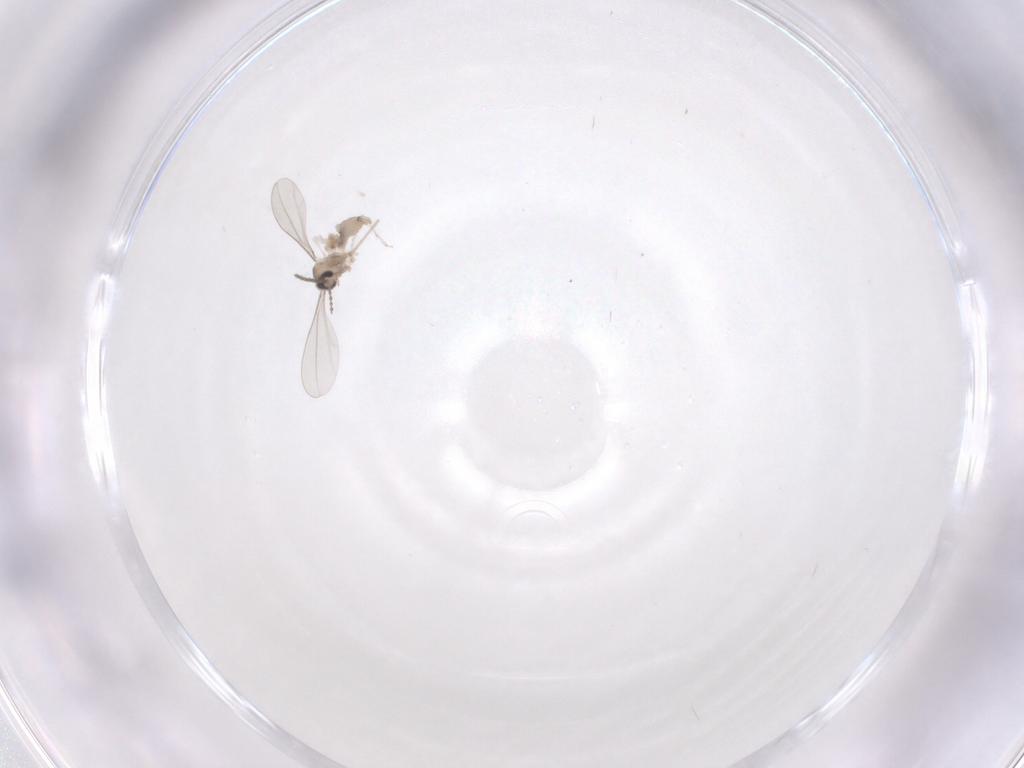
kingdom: Animalia
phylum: Arthropoda
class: Insecta
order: Diptera
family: Cecidomyiidae
